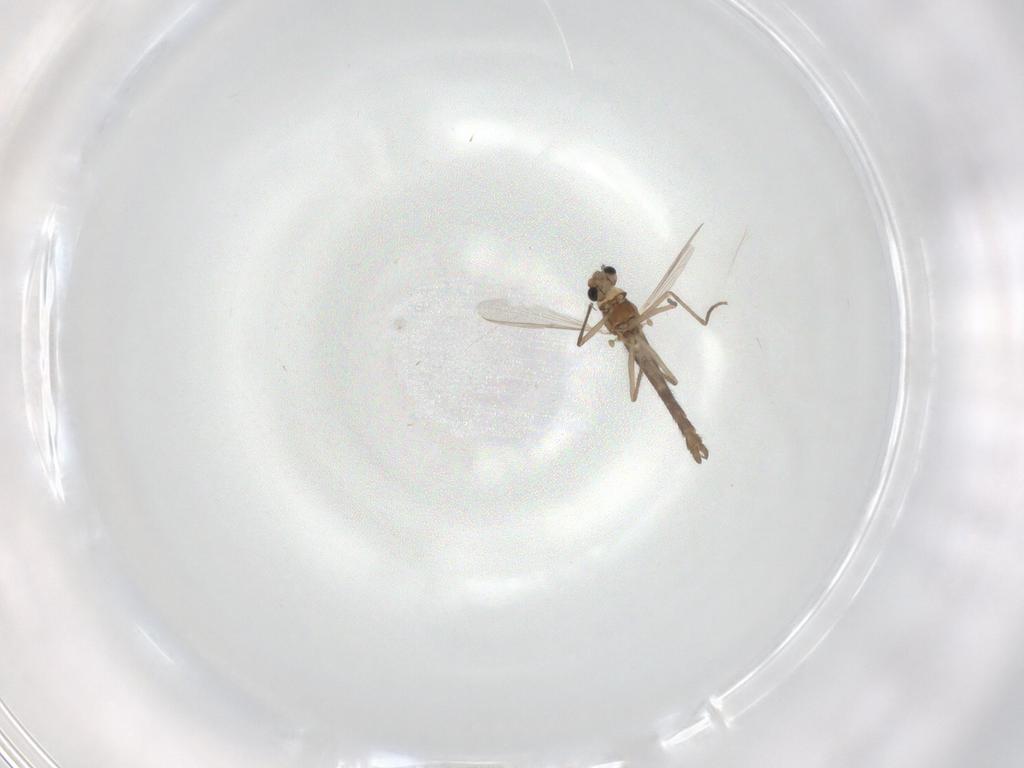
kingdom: Animalia
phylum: Arthropoda
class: Insecta
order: Diptera
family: Chironomidae
